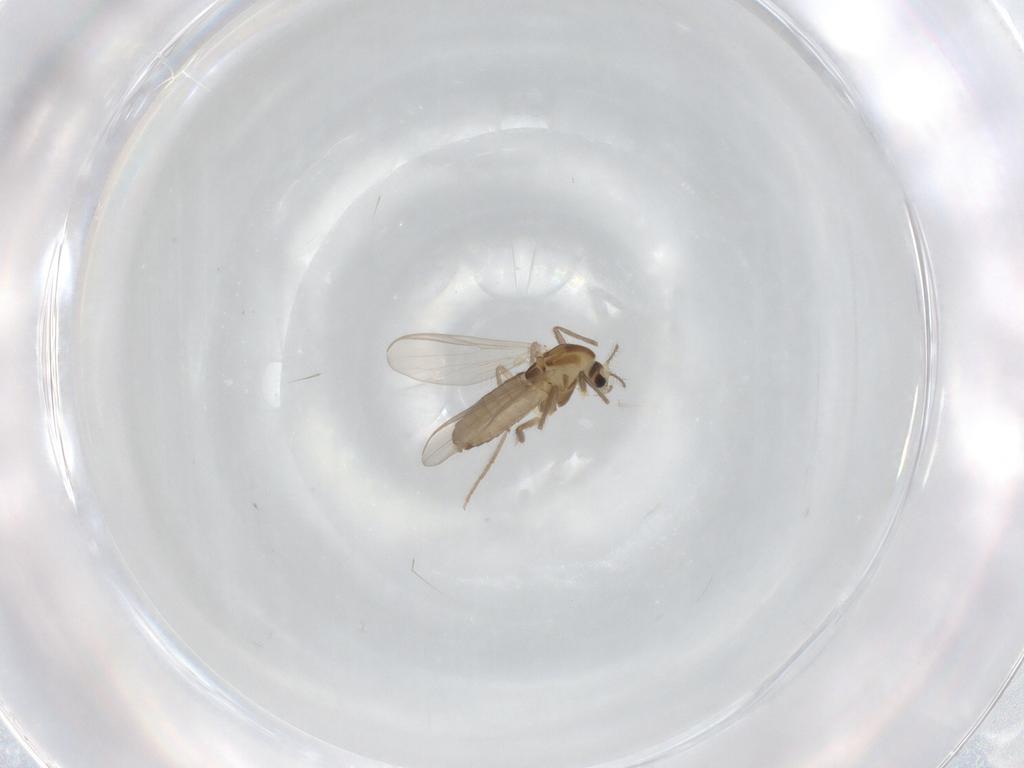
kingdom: Animalia
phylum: Arthropoda
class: Insecta
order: Diptera
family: Chironomidae
